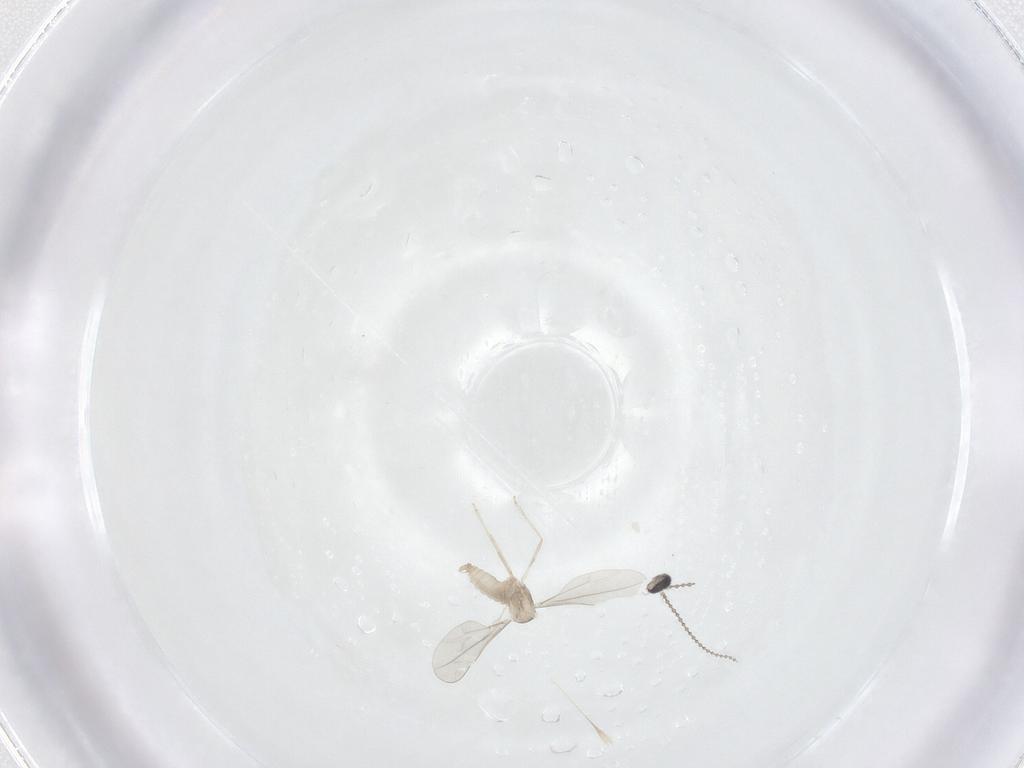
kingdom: Animalia
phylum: Arthropoda
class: Insecta
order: Diptera
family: Cecidomyiidae
